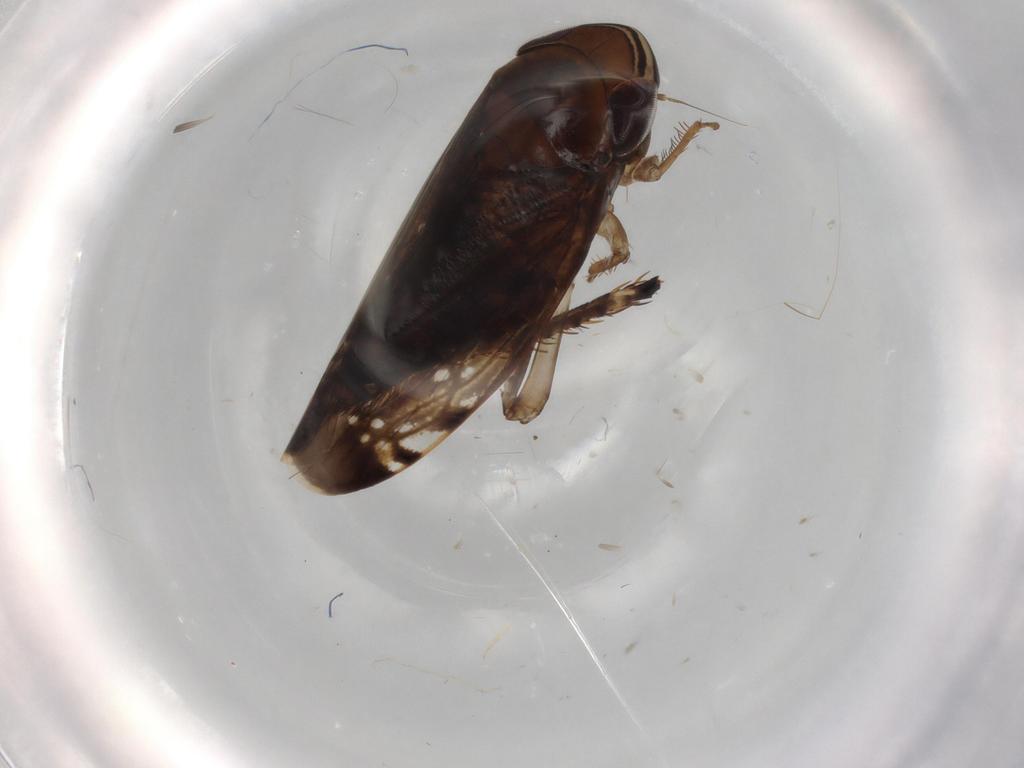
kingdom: Animalia
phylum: Arthropoda
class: Insecta
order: Hemiptera
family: Cicadellidae
